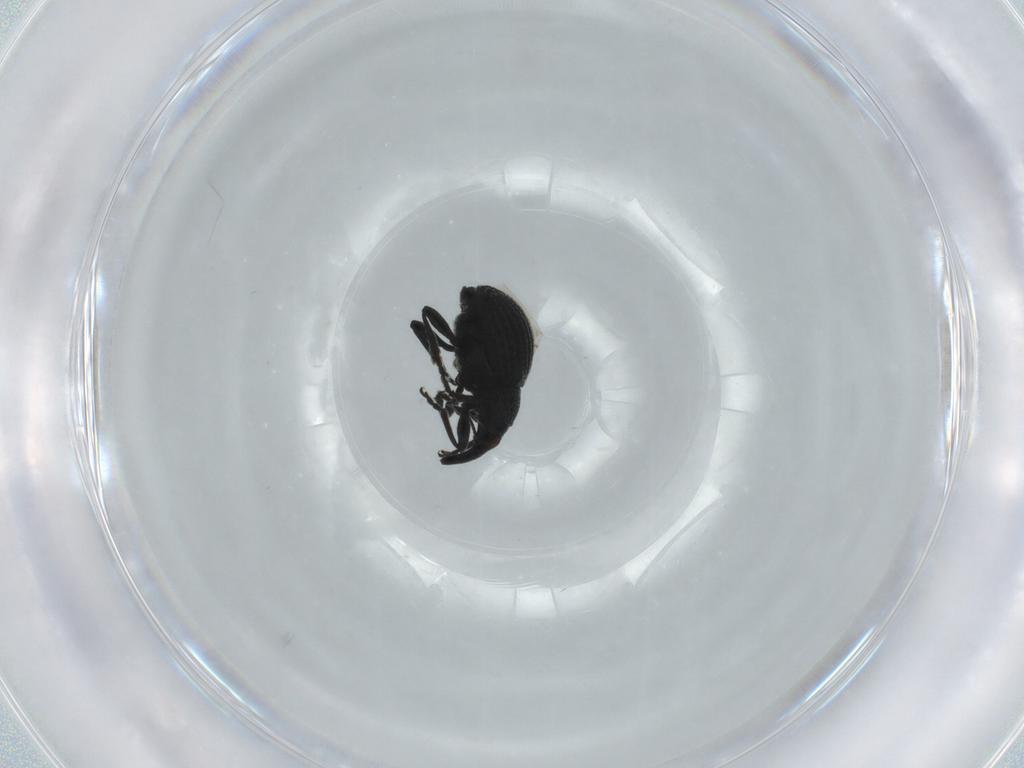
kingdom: Animalia
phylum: Arthropoda
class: Insecta
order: Coleoptera
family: Brentidae
